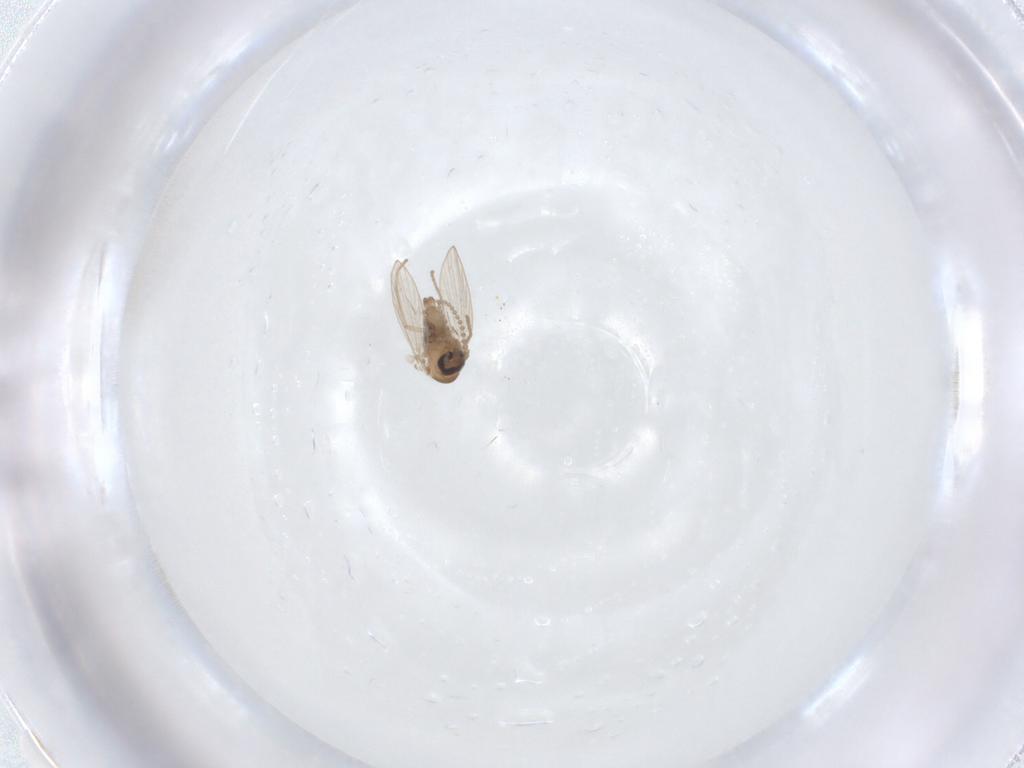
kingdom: Animalia
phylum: Arthropoda
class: Insecta
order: Diptera
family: Psychodidae
